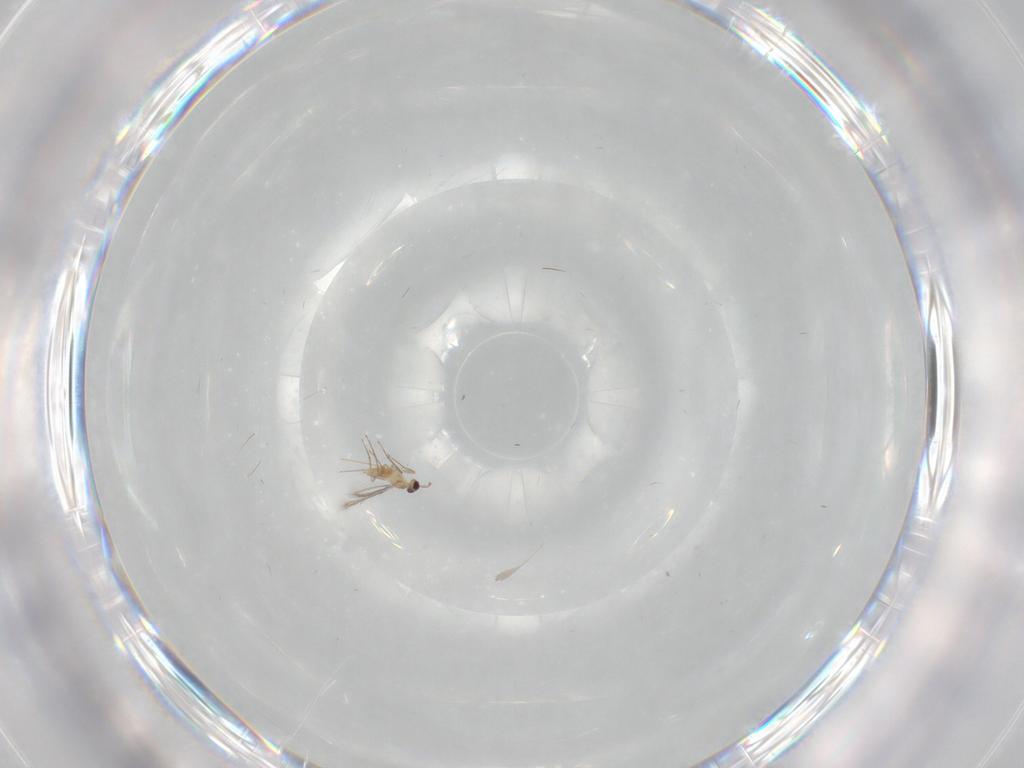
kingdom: Animalia
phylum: Arthropoda
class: Insecta
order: Hymenoptera
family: Mymaridae
